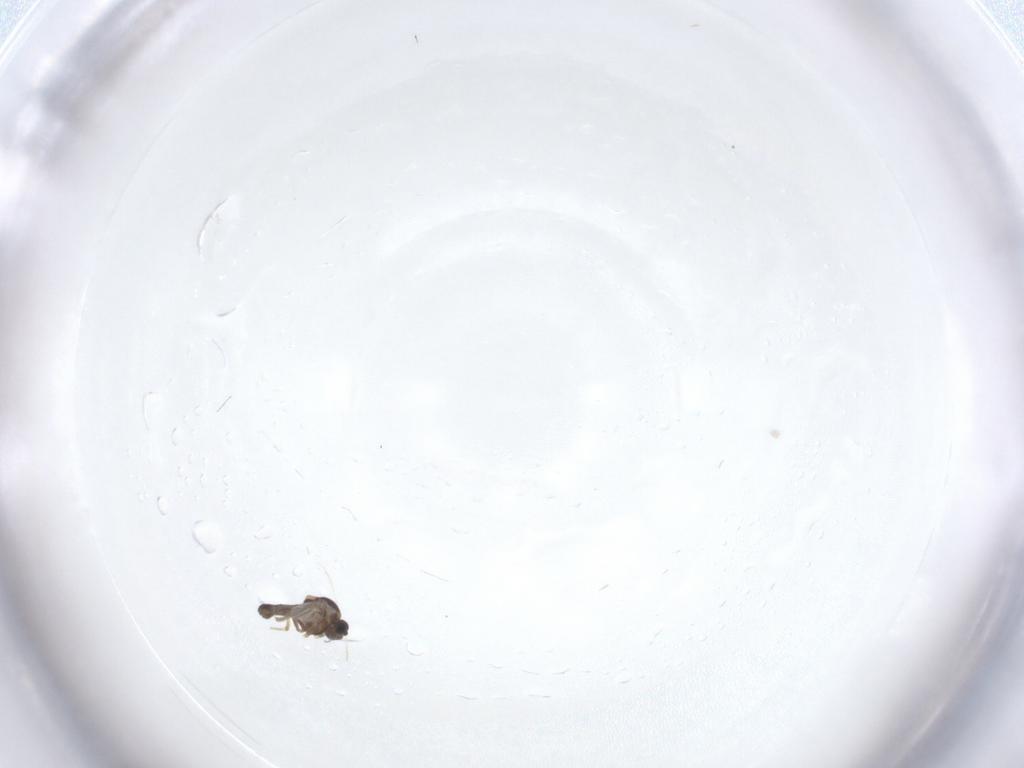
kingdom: Animalia
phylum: Arthropoda
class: Insecta
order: Diptera
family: Ceratopogonidae
